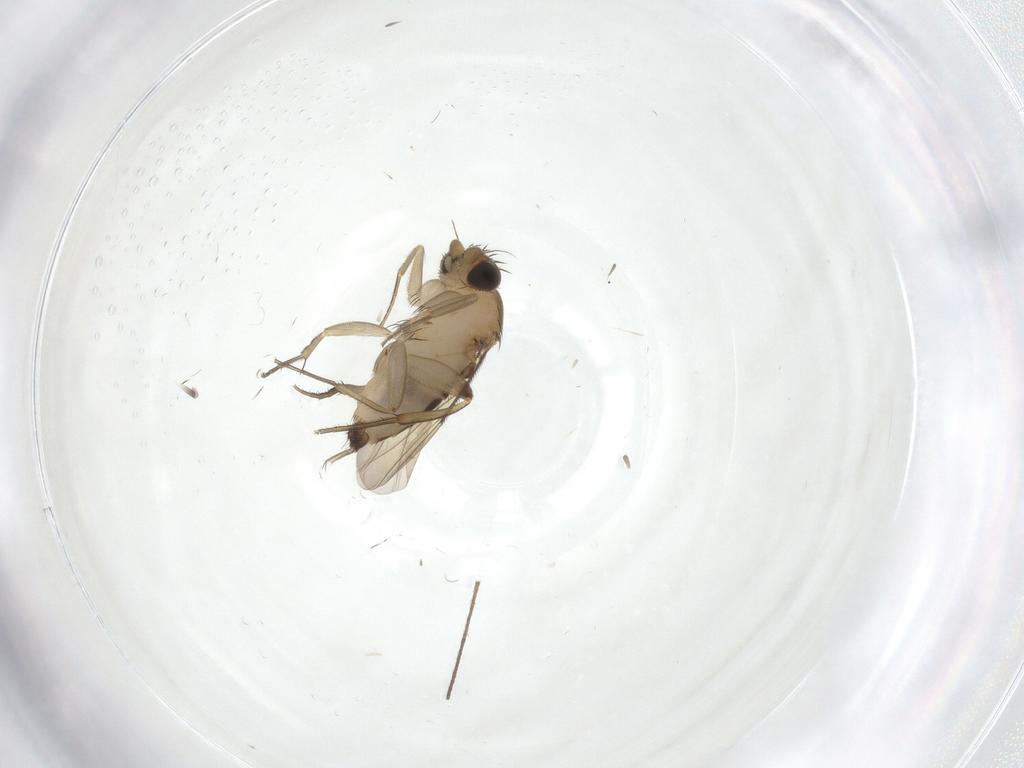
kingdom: Animalia
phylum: Arthropoda
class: Insecta
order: Diptera
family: Phoridae
